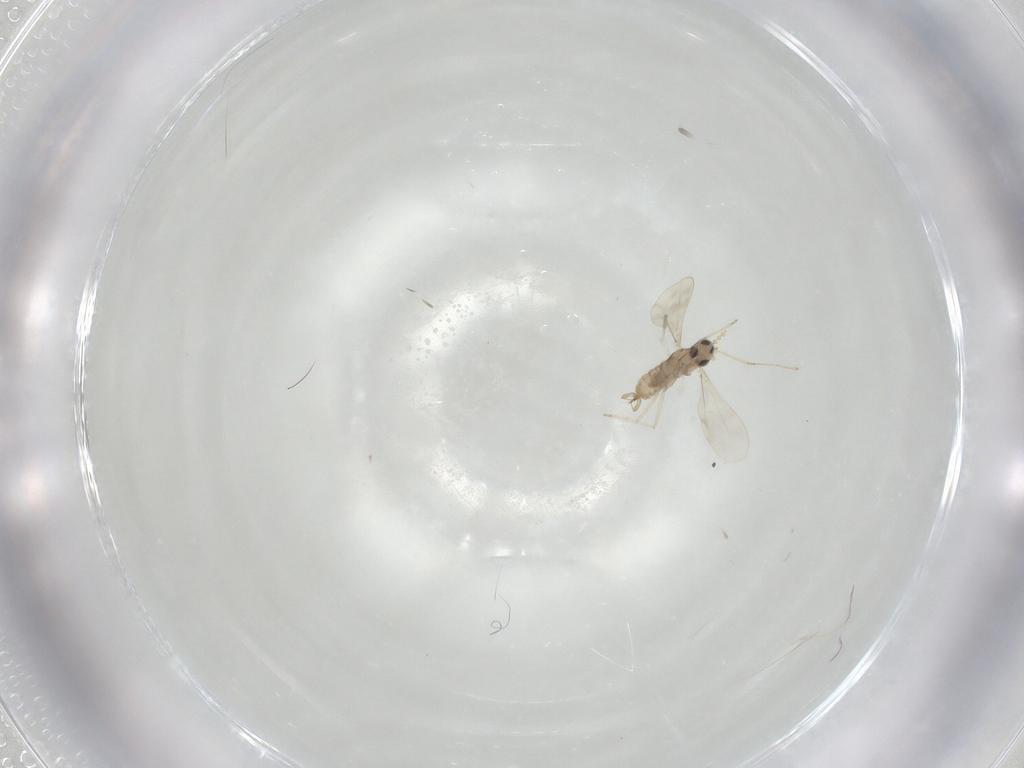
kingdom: Animalia
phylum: Arthropoda
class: Insecta
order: Diptera
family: Cecidomyiidae
